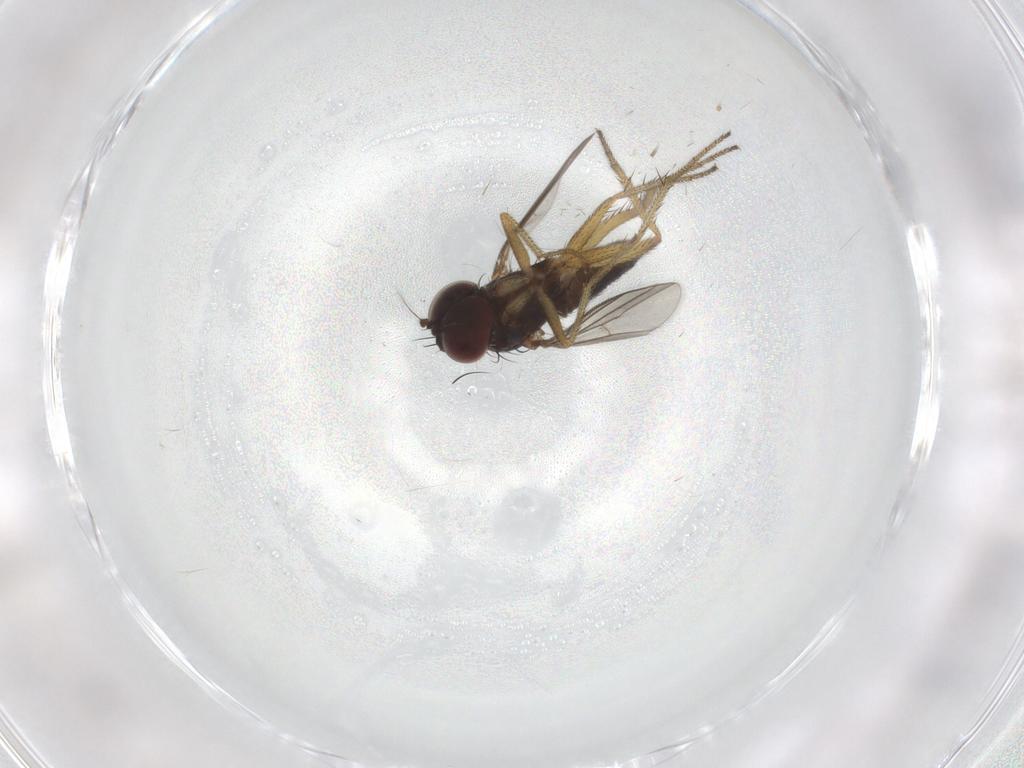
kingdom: Animalia
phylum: Arthropoda
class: Insecta
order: Diptera
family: Dolichopodidae
